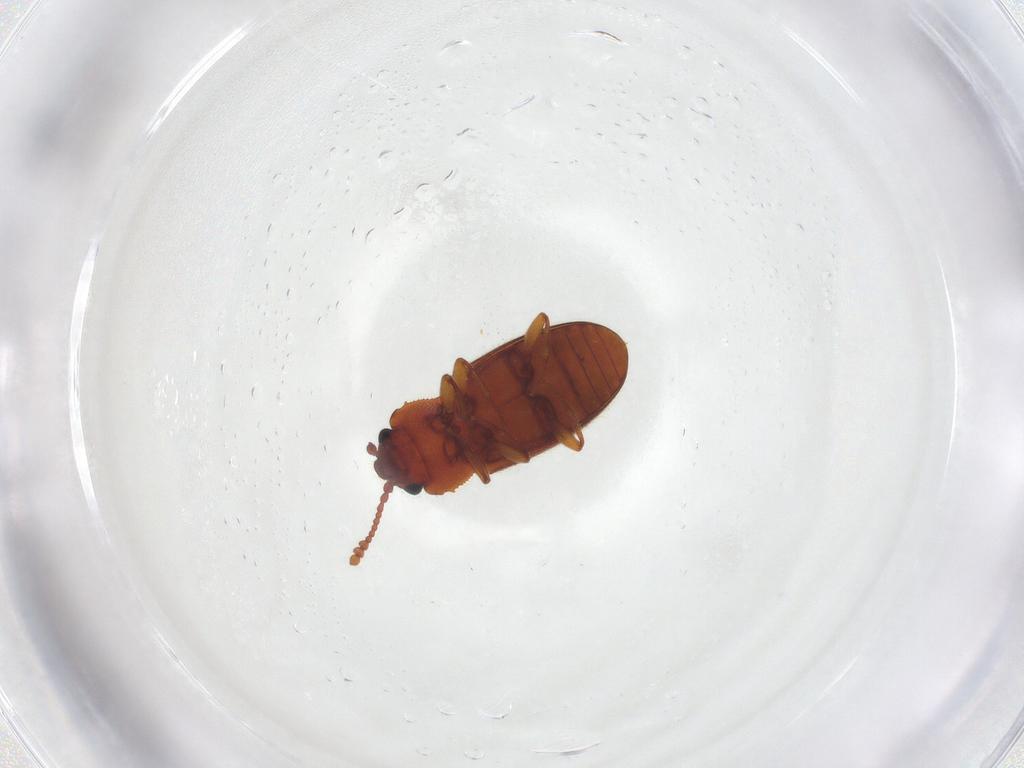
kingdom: Animalia
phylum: Arthropoda
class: Insecta
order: Coleoptera
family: Cryptophagidae
